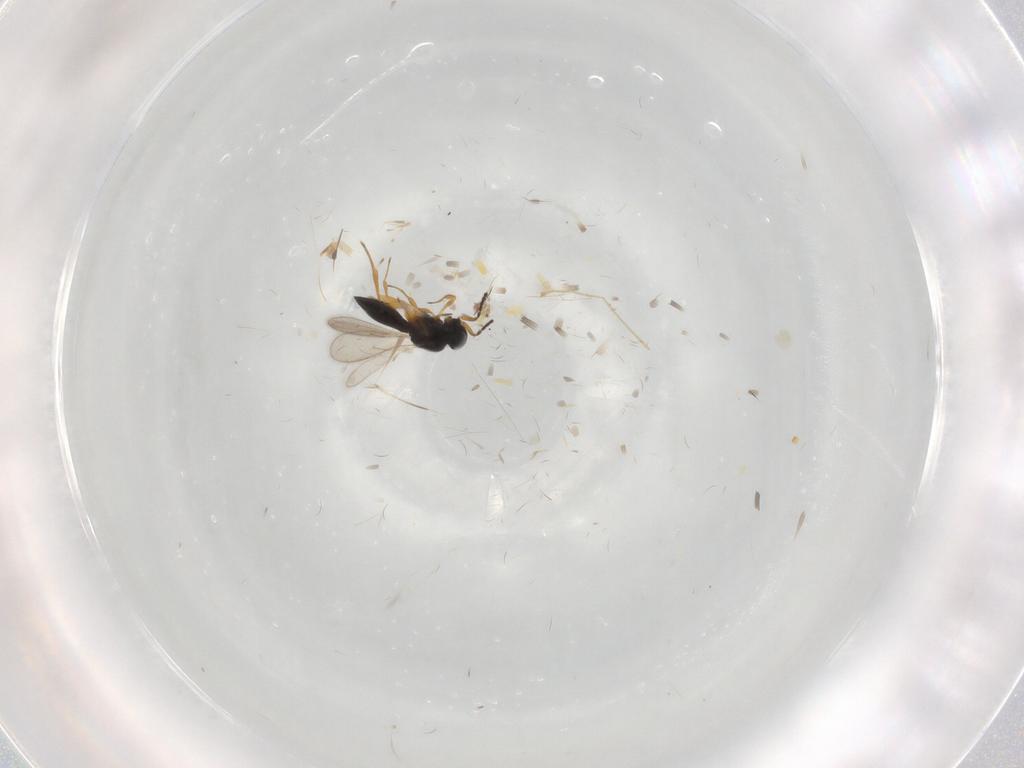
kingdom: Animalia
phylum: Arthropoda
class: Insecta
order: Hymenoptera
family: Scelionidae
